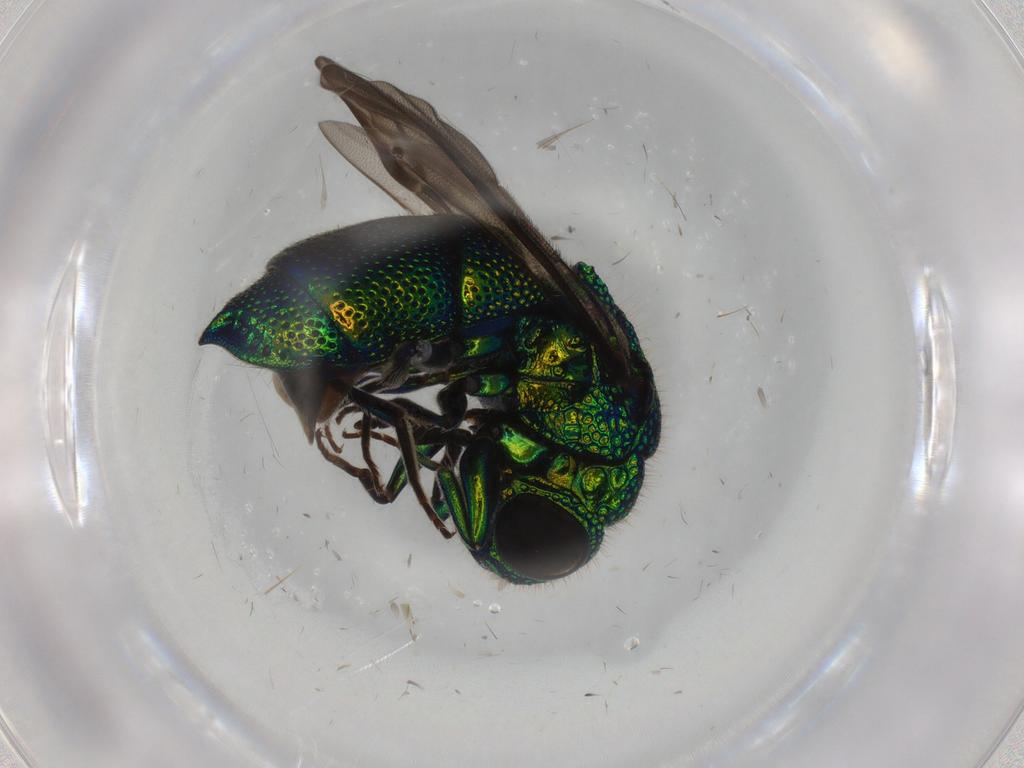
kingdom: Animalia
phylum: Arthropoda
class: Insecta
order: Hymenoptera
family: Chrysididae
